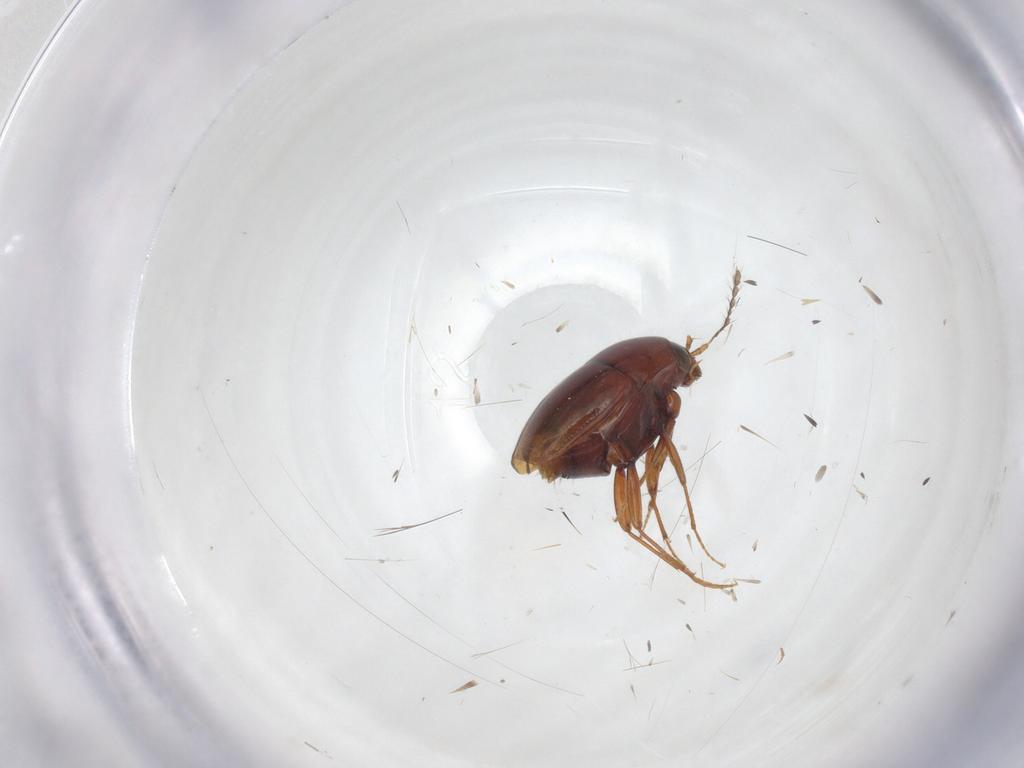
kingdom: Animalia
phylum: Arthropoda
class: Insecta
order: Coleoptera
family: Staphylinidae
